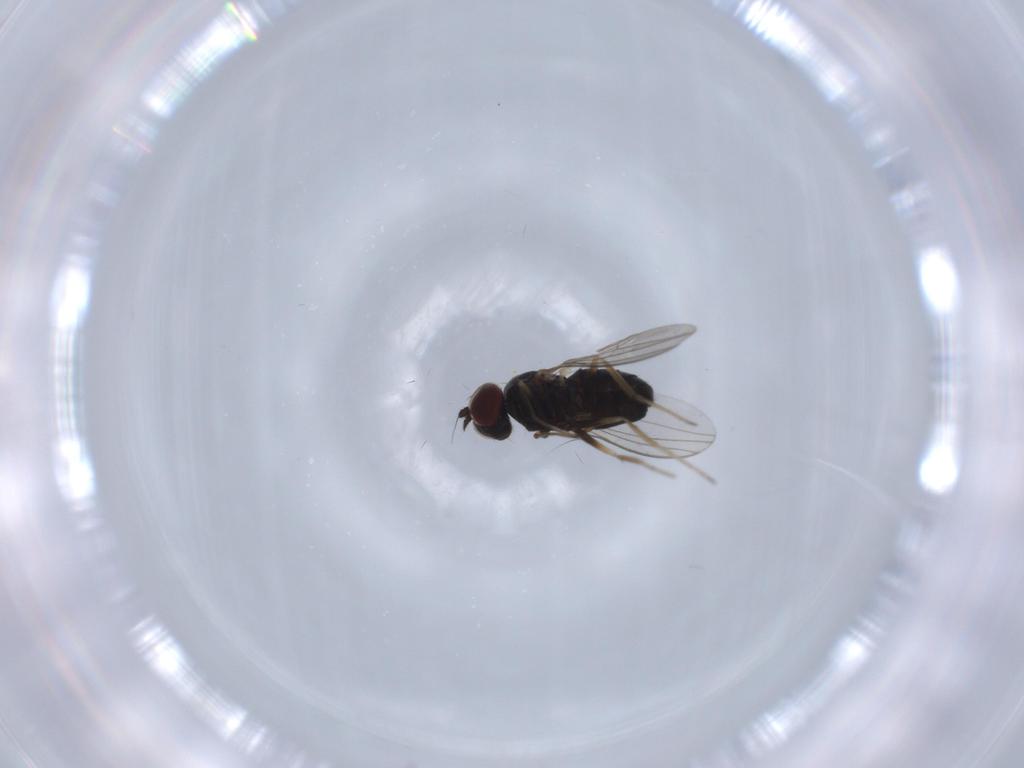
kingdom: Animalia
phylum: Arthropoda
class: Insecta
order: Diptera
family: Dolichopodidae
